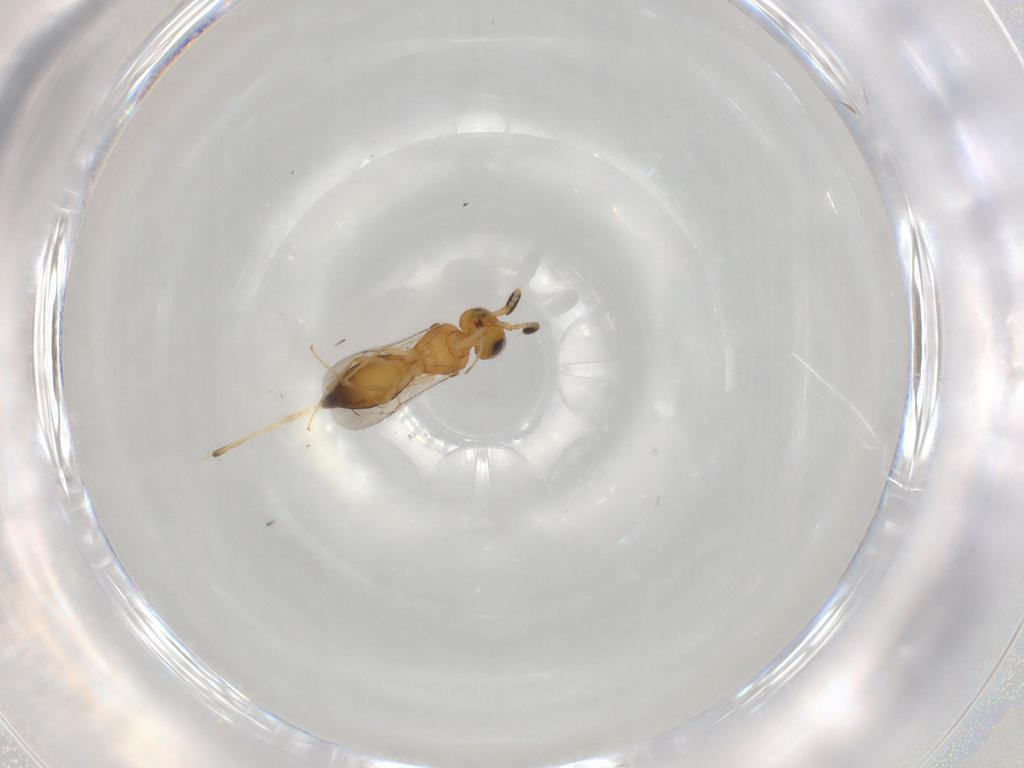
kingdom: Animalia
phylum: Arthropoda
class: Insecta
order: Hymenoptera
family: Scelionidae
